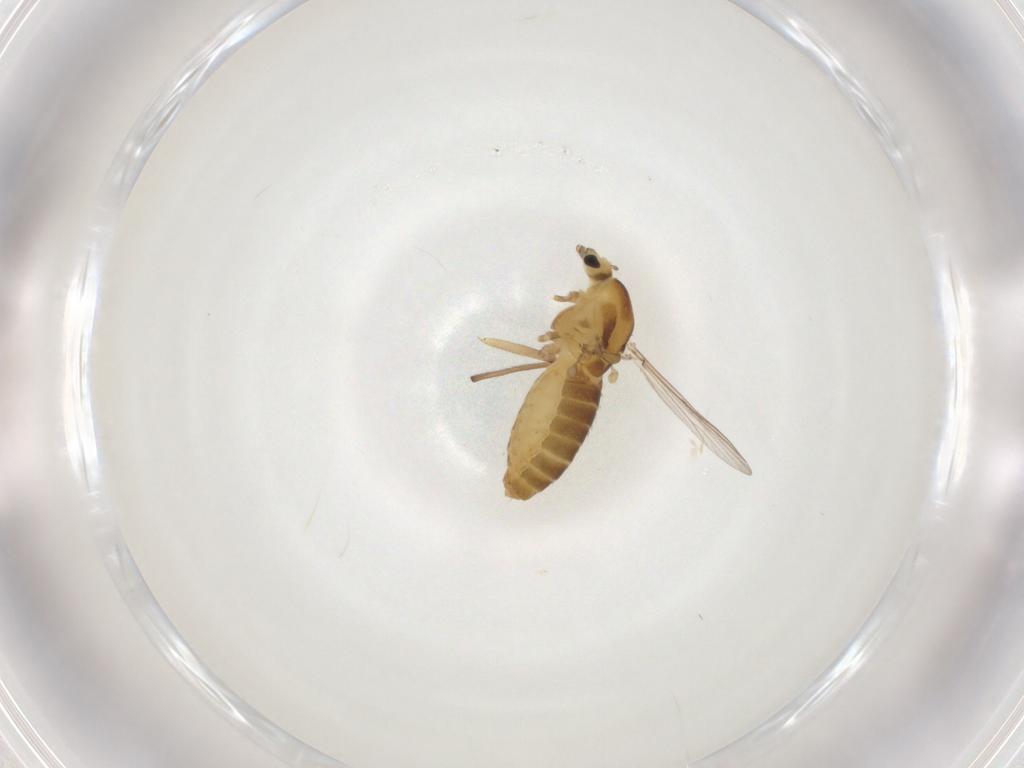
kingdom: Animalia
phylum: Arthropoda
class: Insecta
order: Diptera
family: Chironomidae
